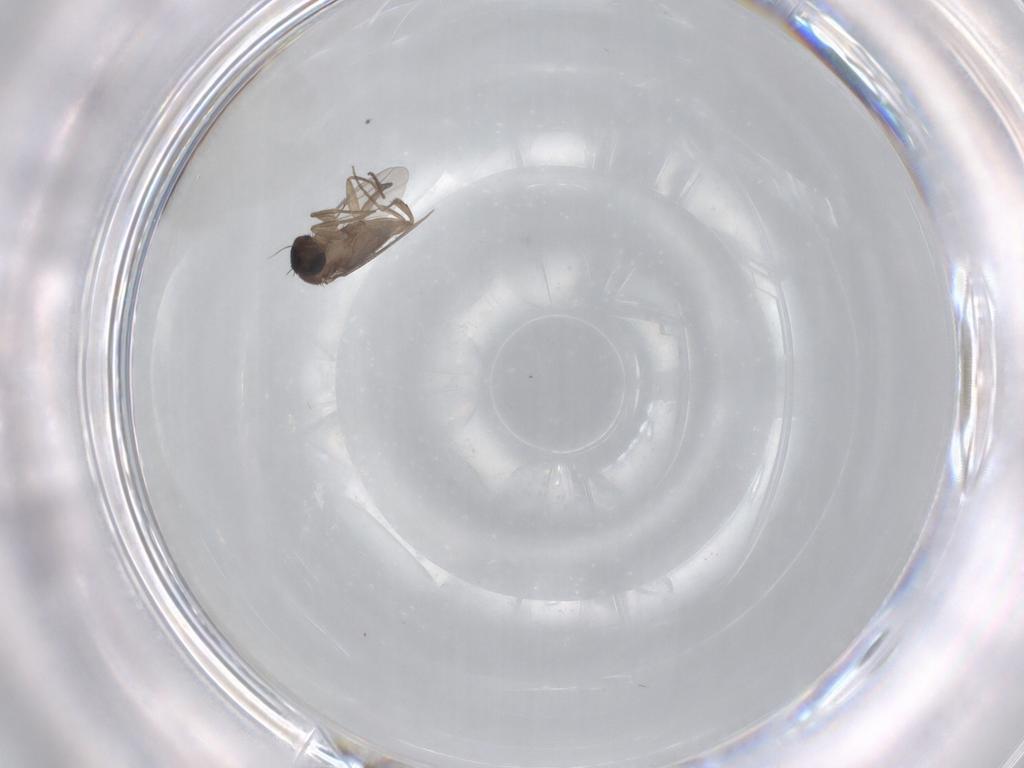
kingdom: Animalia
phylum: Arthropoda
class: Insecta
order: Diptera
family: Phoridae
